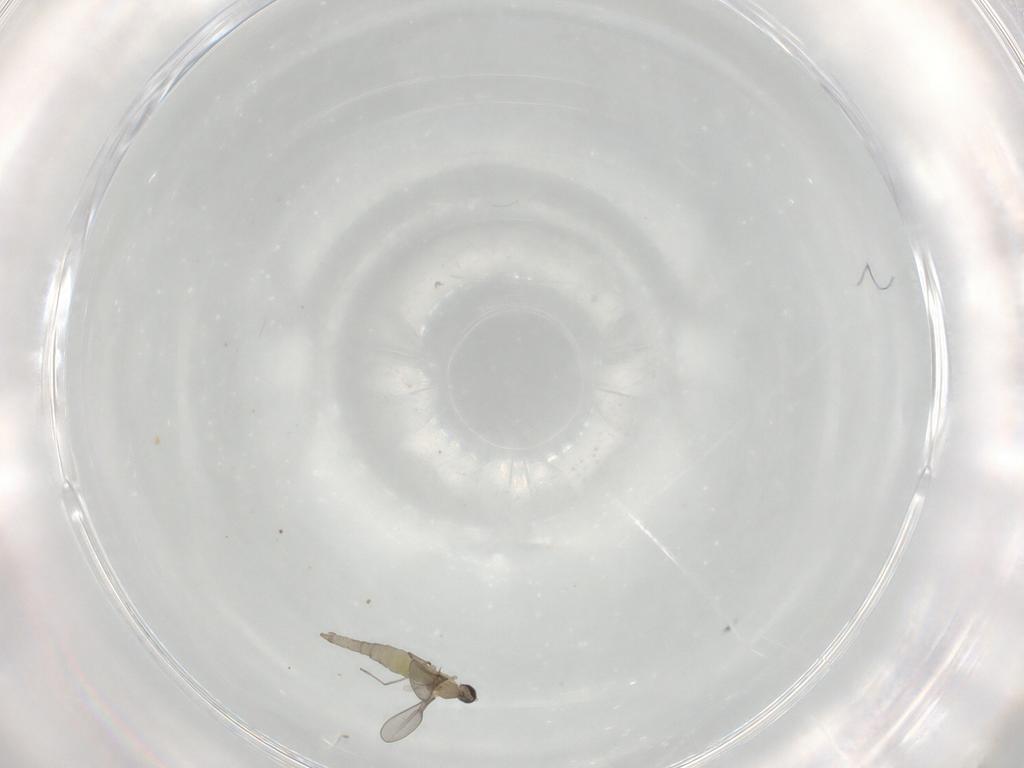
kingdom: Animalia
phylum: Arthropoda
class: Insecta
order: Diptera
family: Chironomidae
